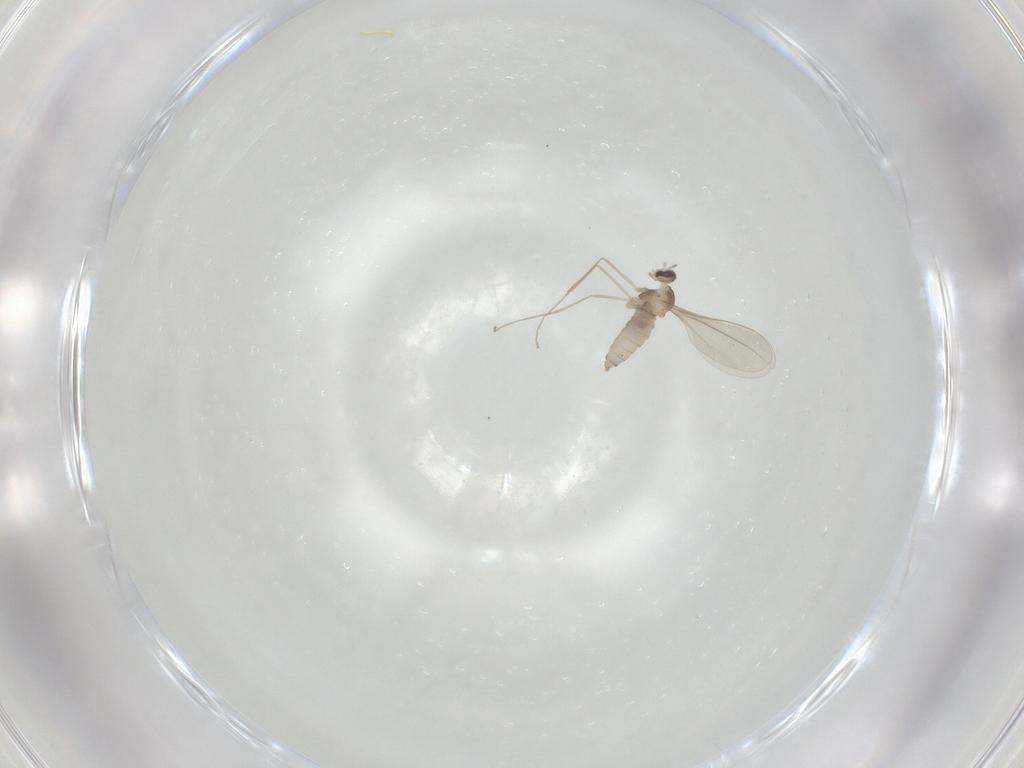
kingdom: Animalia
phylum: Arthropoda
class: Insecta
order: Diptera
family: Cecidomyiidae
